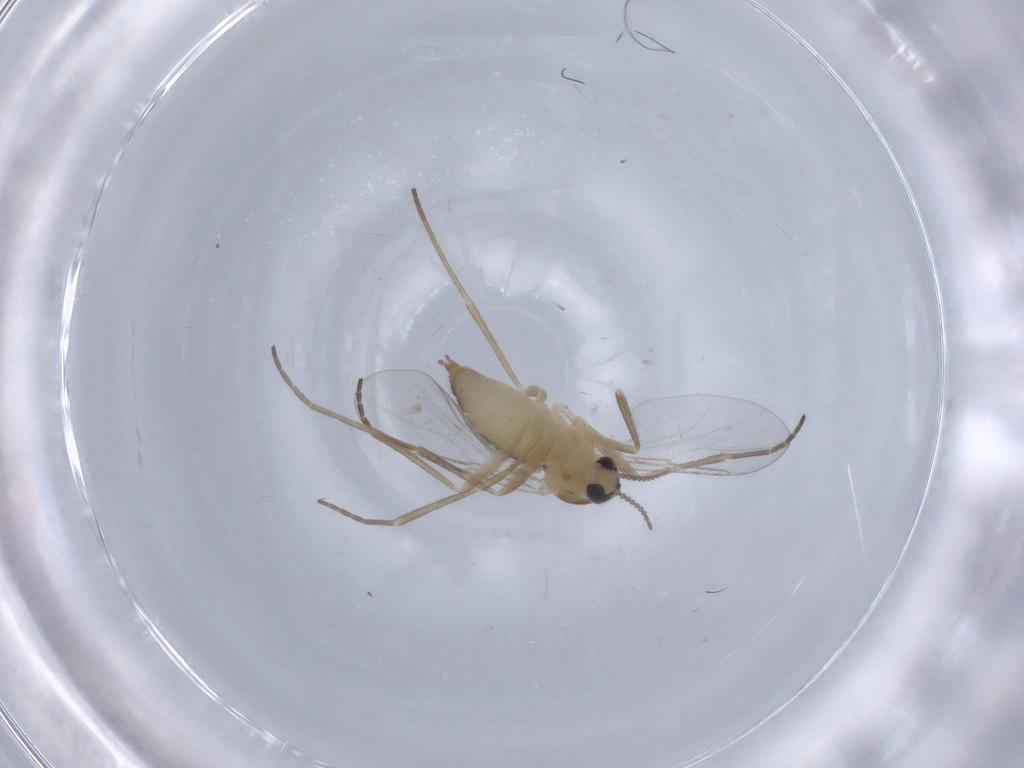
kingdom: Animalia
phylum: Arthropoda
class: Insecta
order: Diptera
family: Cecidomyiidae
